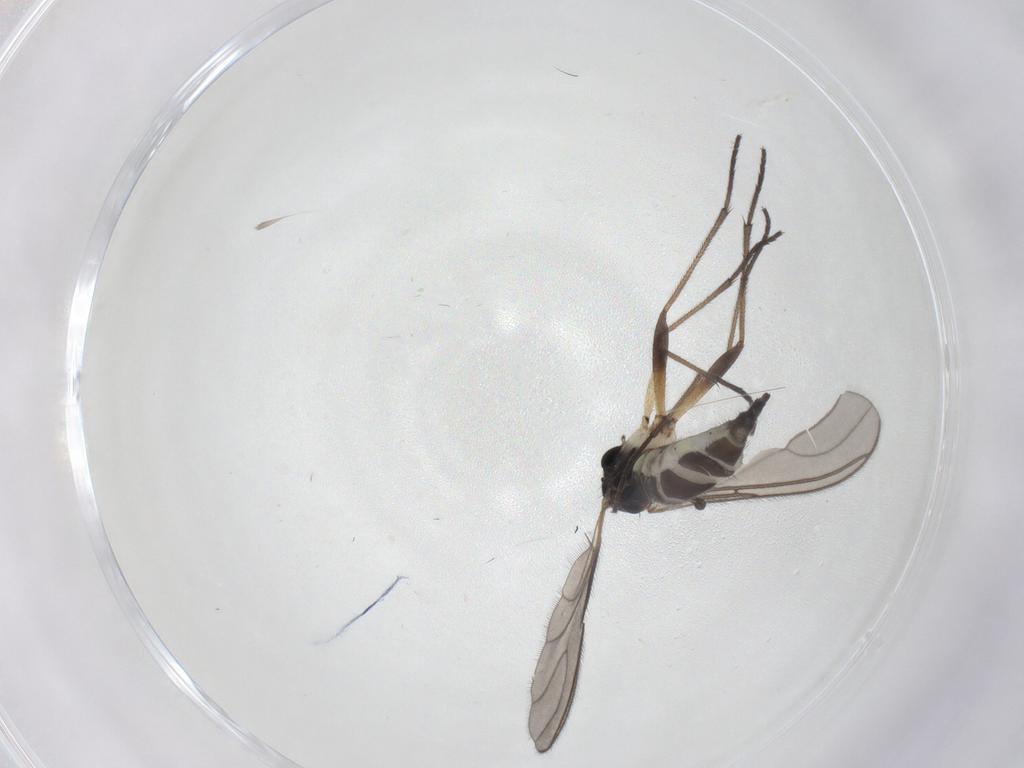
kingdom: Animalia
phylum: Arthropoda
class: Insecta
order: Diptera
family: Sciaridae
